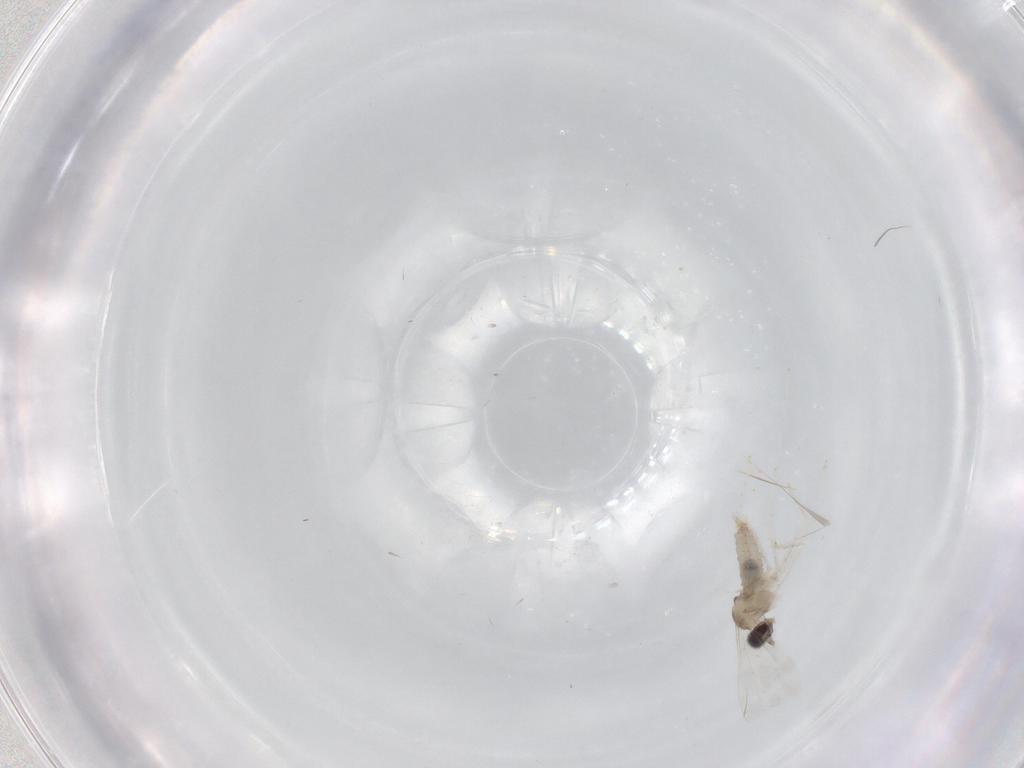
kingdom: Animalia
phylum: Arthropoda
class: Insecta
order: Diptera
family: Cecidomyiidae
